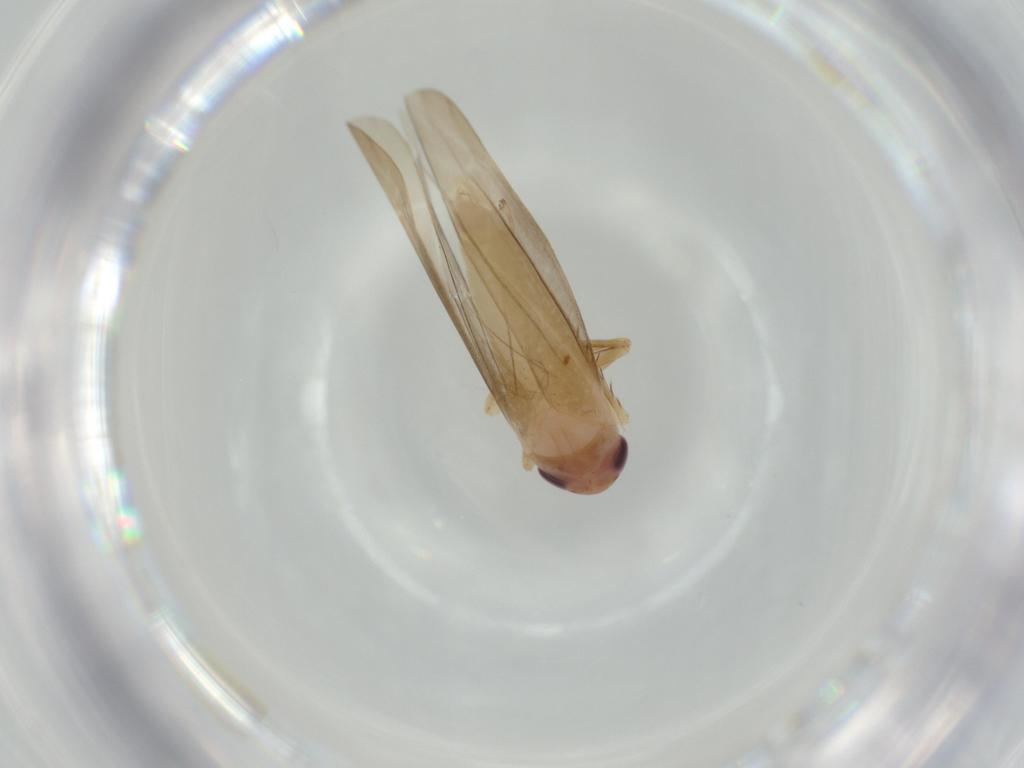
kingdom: Animalia
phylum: Arthropoda
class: Insecta
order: Hemiptera
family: Cicadellidae
